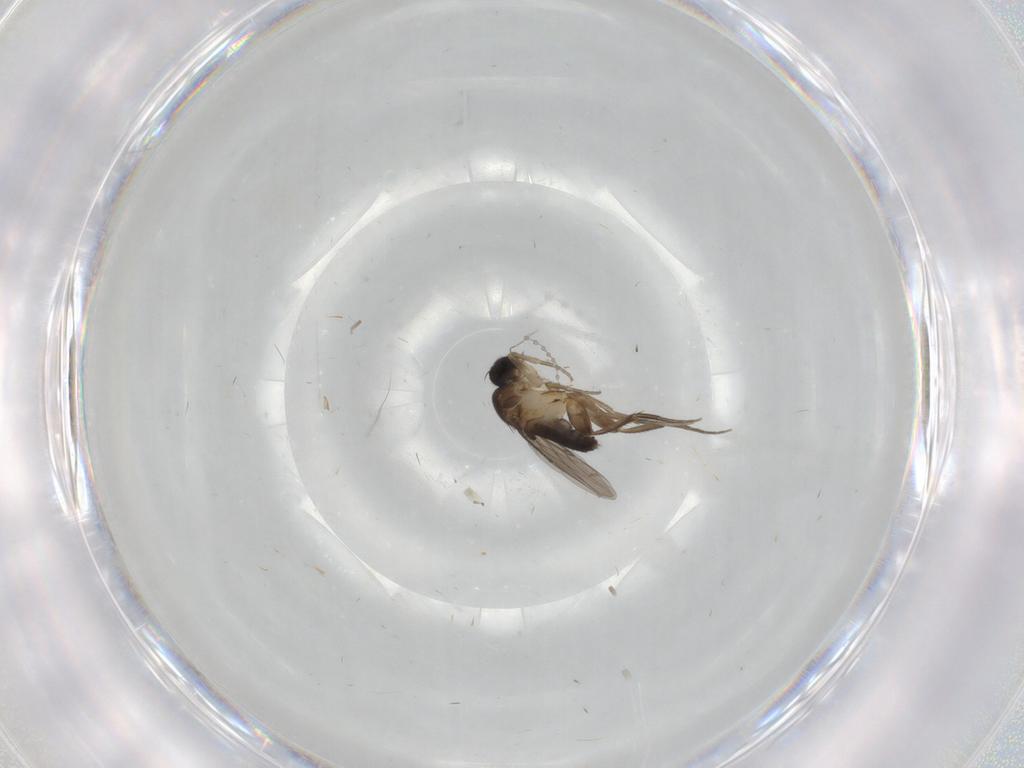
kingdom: Animalia
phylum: Arthropoda
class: Insecta
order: Diptera
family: Phoridae
